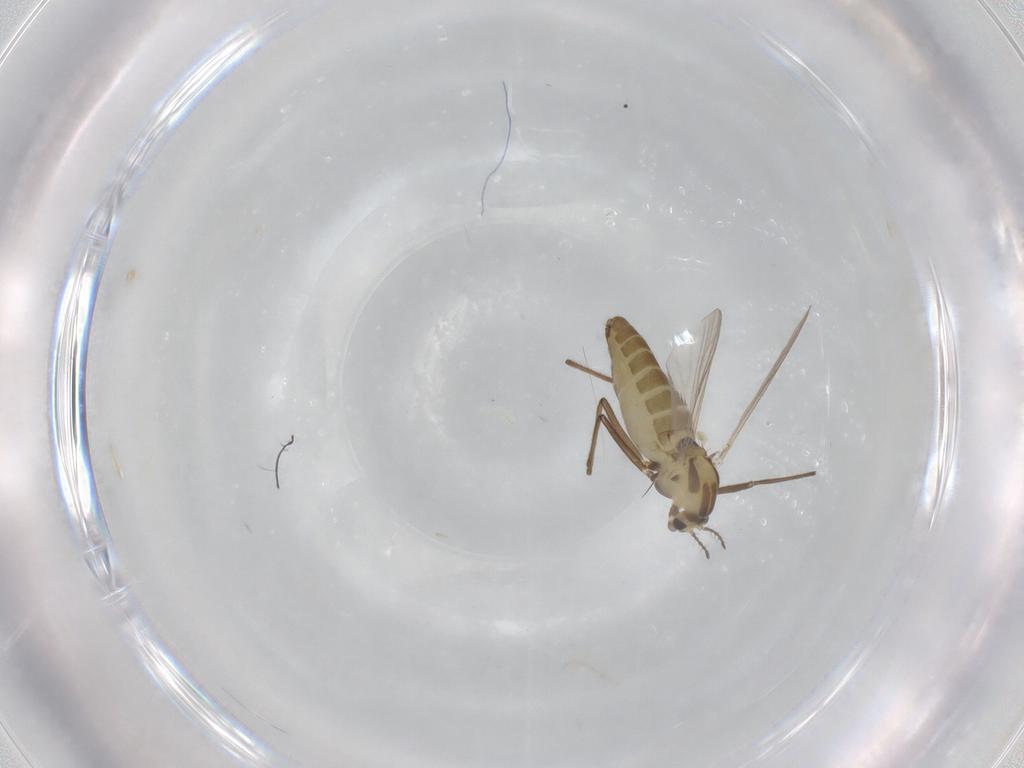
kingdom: Animalia
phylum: Arthropoda
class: Insecta
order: Diptera
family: Chironomidae
